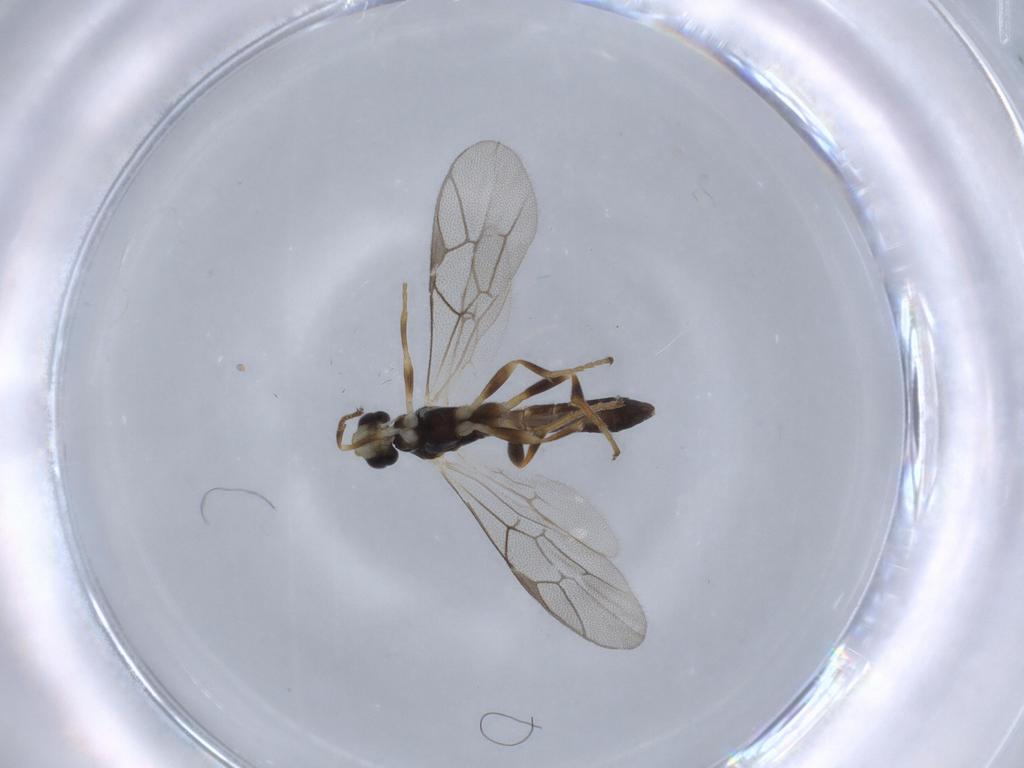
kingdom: Animalia
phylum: Arthropoda
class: Insecta
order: Hymenoptera
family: Ichneumonidae
